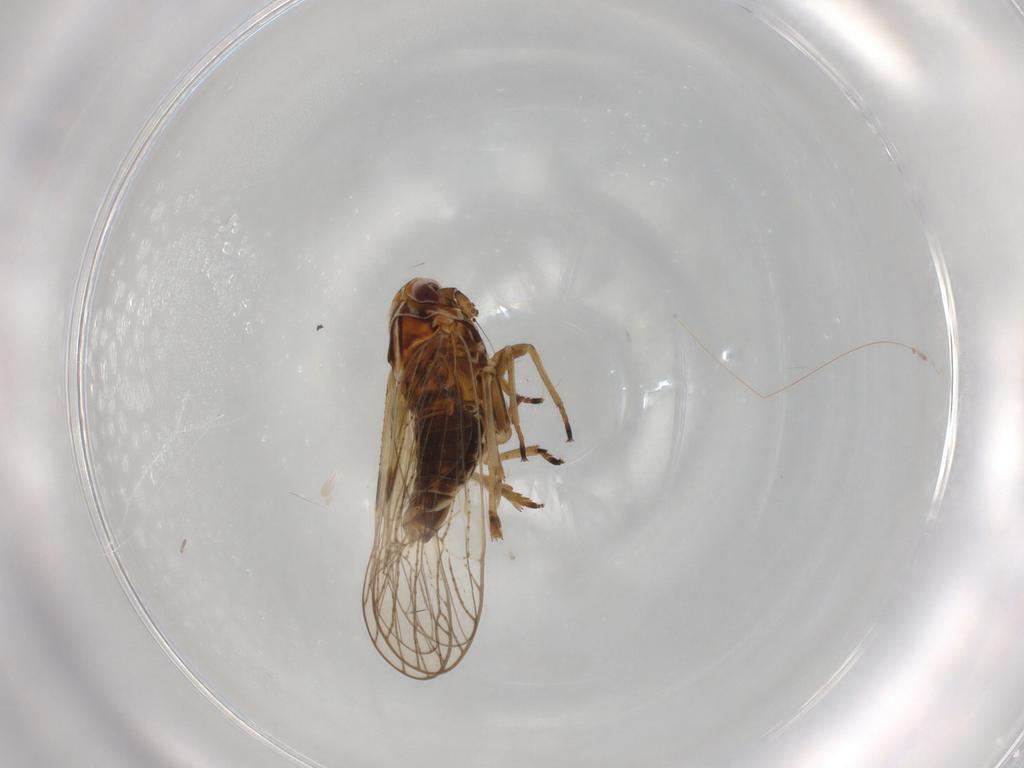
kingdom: Animalia
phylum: Arthropoda
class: Insecta
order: Hemiptera
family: Delphacidae
